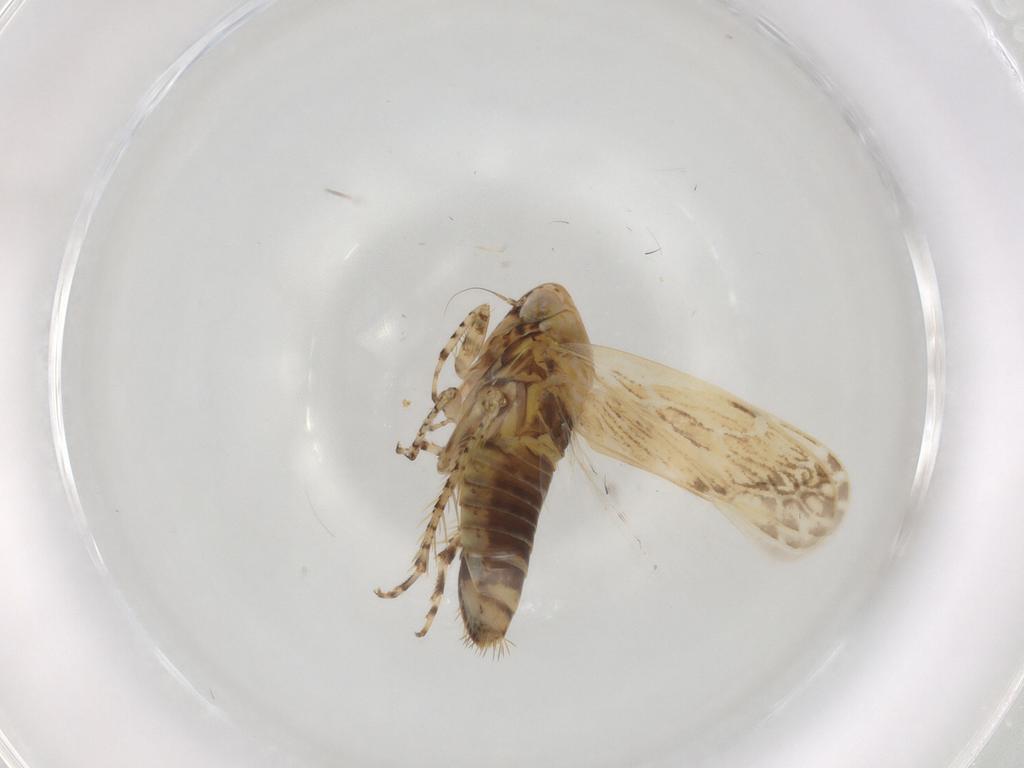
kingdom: Animalia
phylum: Arthropoda
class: Insecta
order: Hemiptera
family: Cicadellidae
